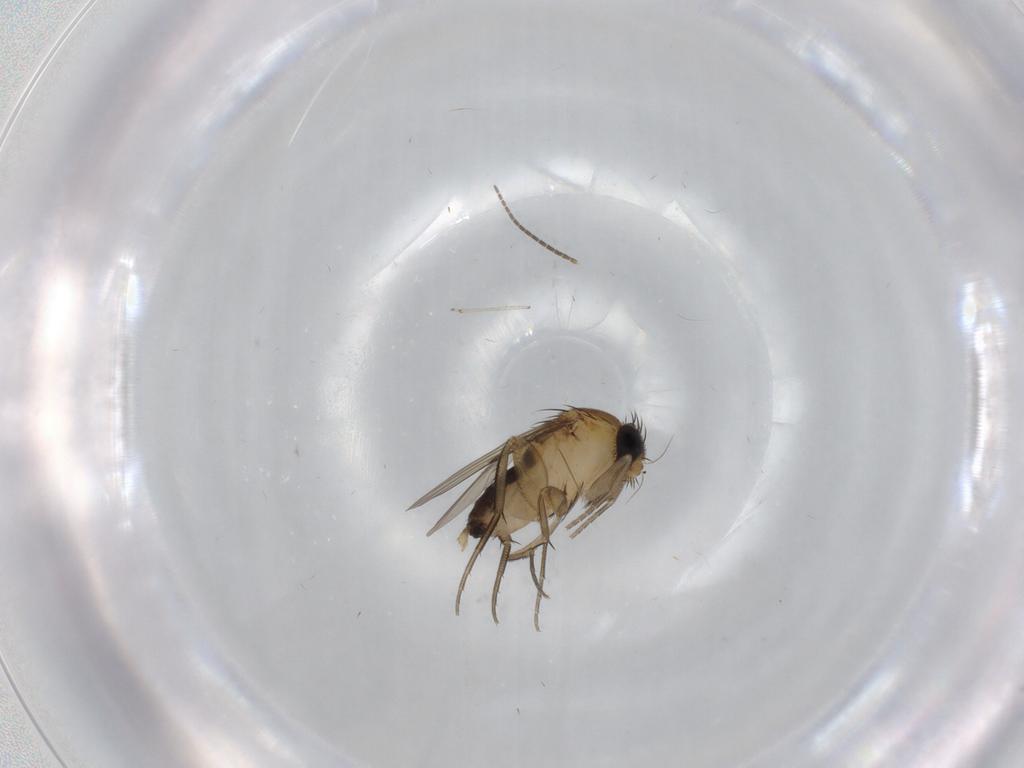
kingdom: Animalia
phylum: Arthropoda
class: Insecta
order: Diptera
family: Phoridae
